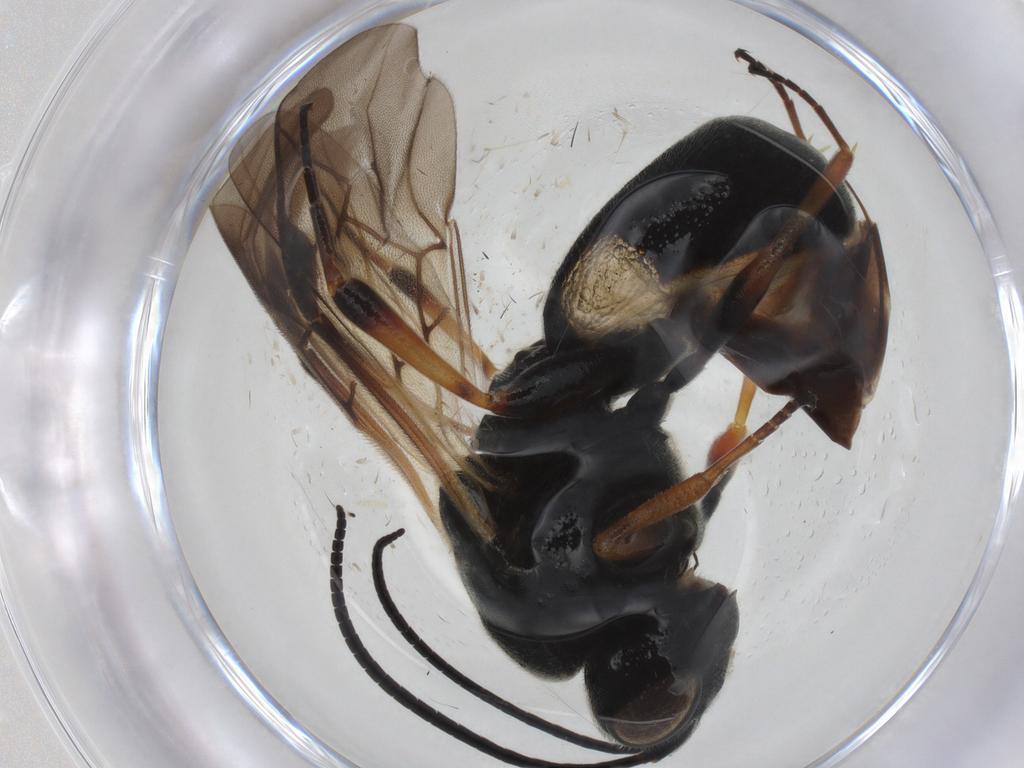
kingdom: Animalia
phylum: Arthropoda
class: Insecta
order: Hymenoptera
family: Braconidae
